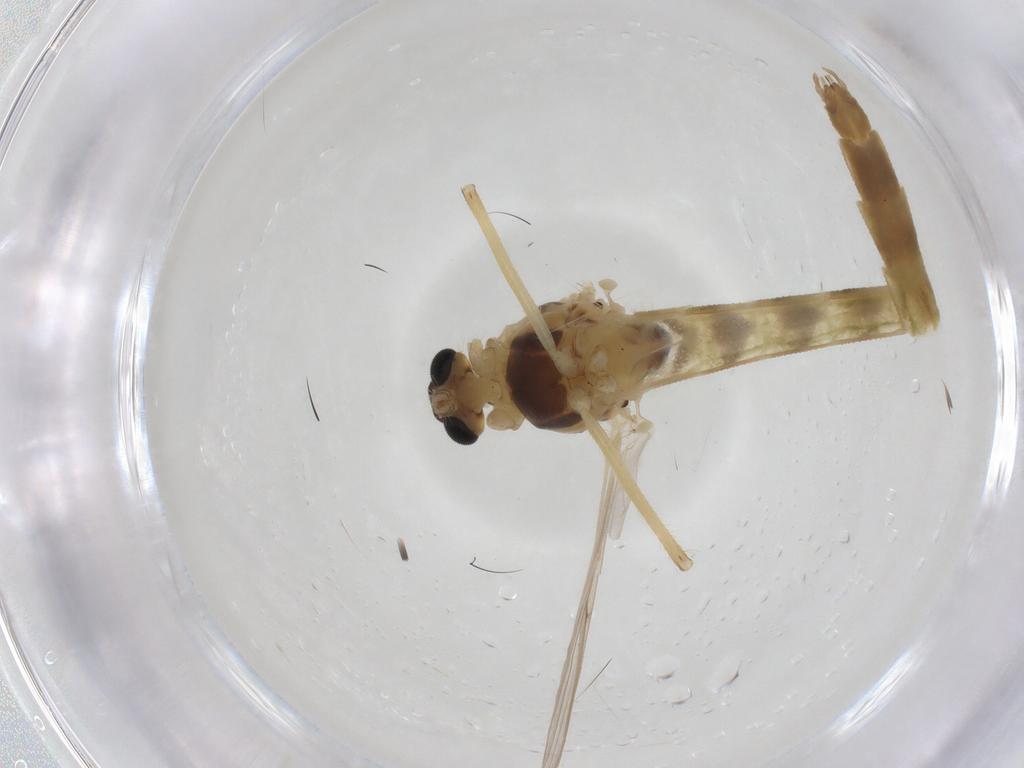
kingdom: Animalia
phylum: Arthropoda
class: Insecta
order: Diptera
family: Chironomidae
